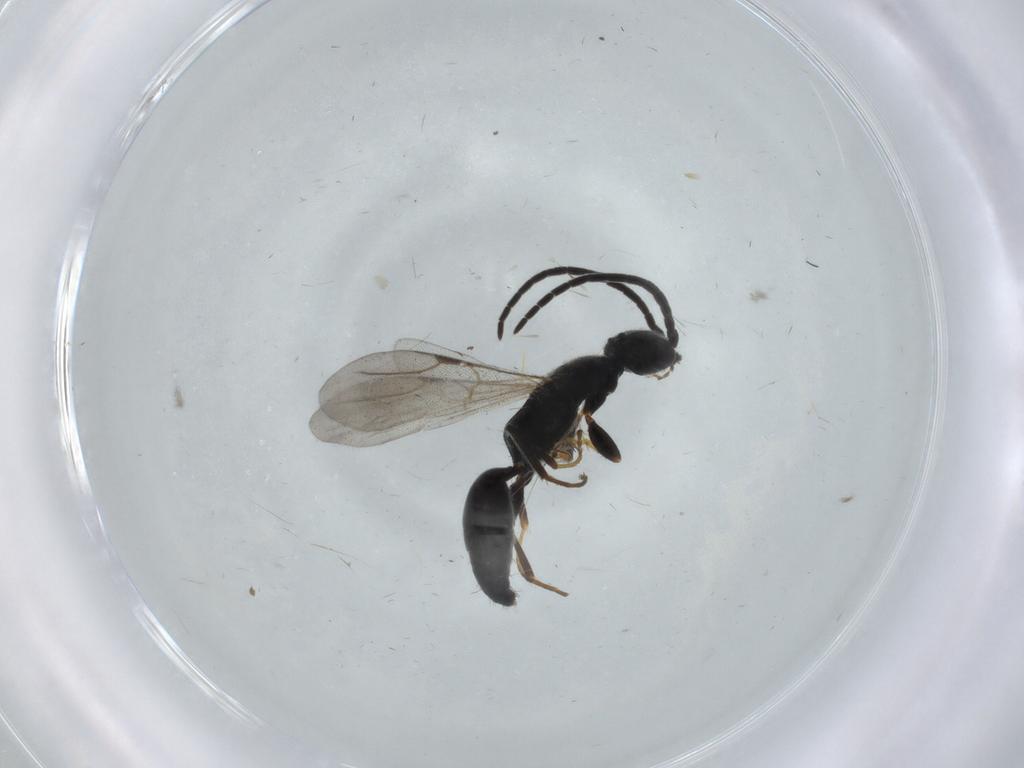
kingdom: Animalia
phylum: Arthropoda
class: Insecta
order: Hymenoptera
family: Bethylidae
